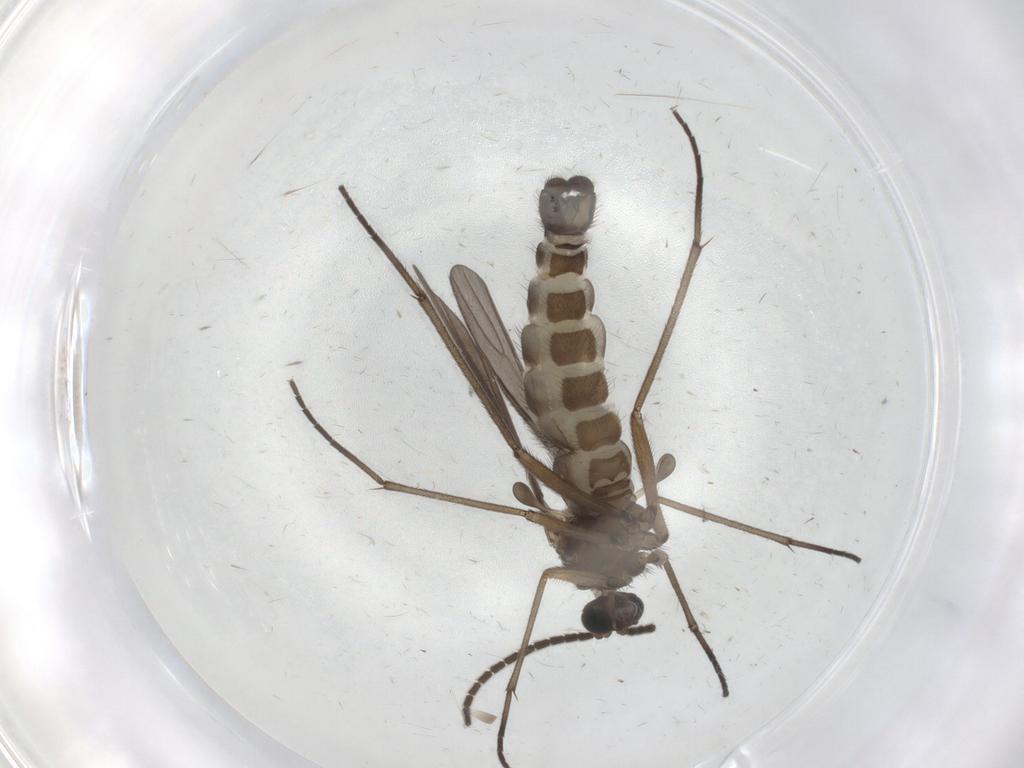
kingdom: Animalia
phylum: Arthropoda
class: Insecta
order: Diptera
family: Sciaridae
